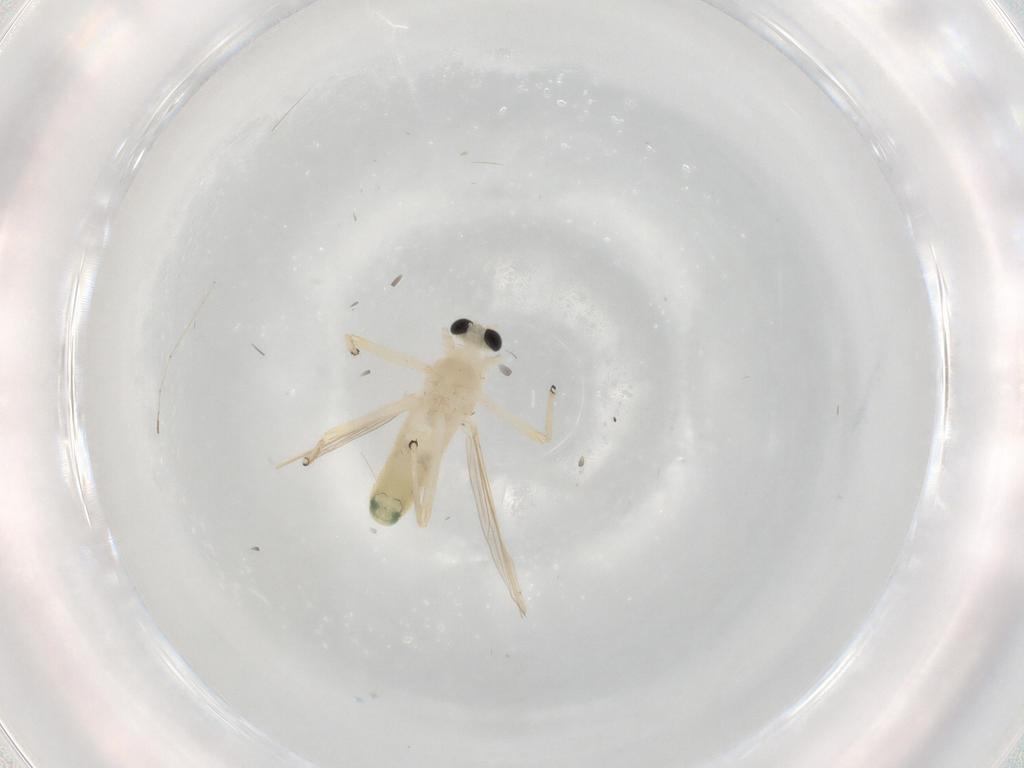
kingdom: Animalia
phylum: Arthropoda
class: Insecta
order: Diptera
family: Cecidomyiidae
